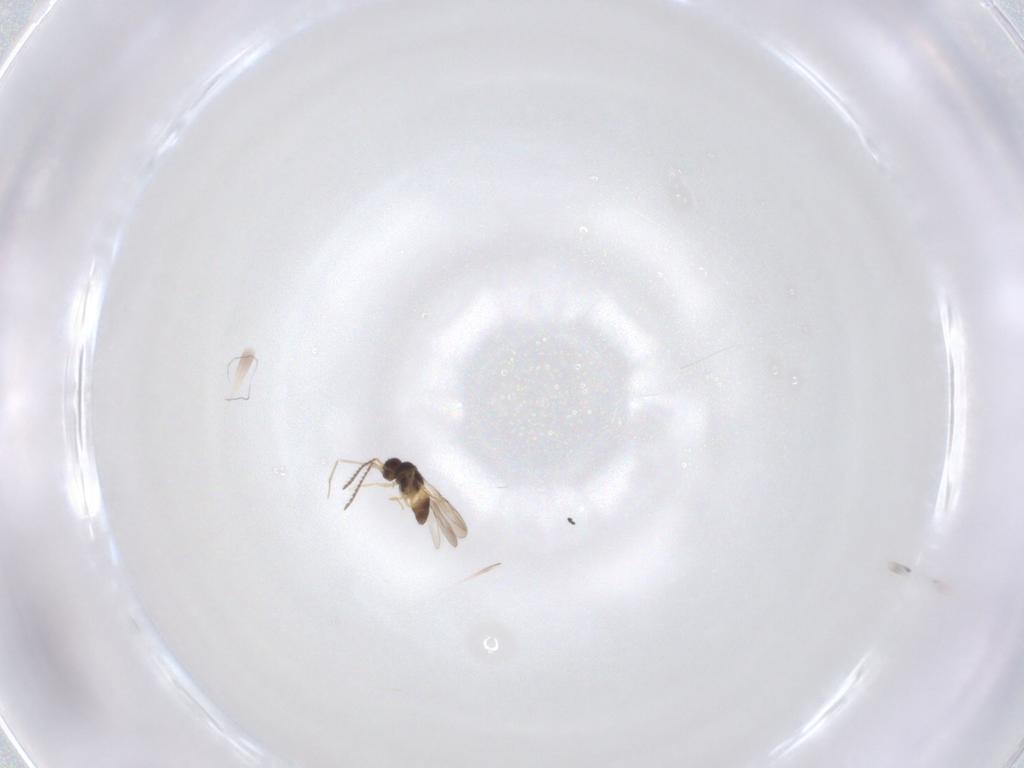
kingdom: Animalia
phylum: Arthropoda
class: Insecta
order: Hymenoptera
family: Ceraphronidae
